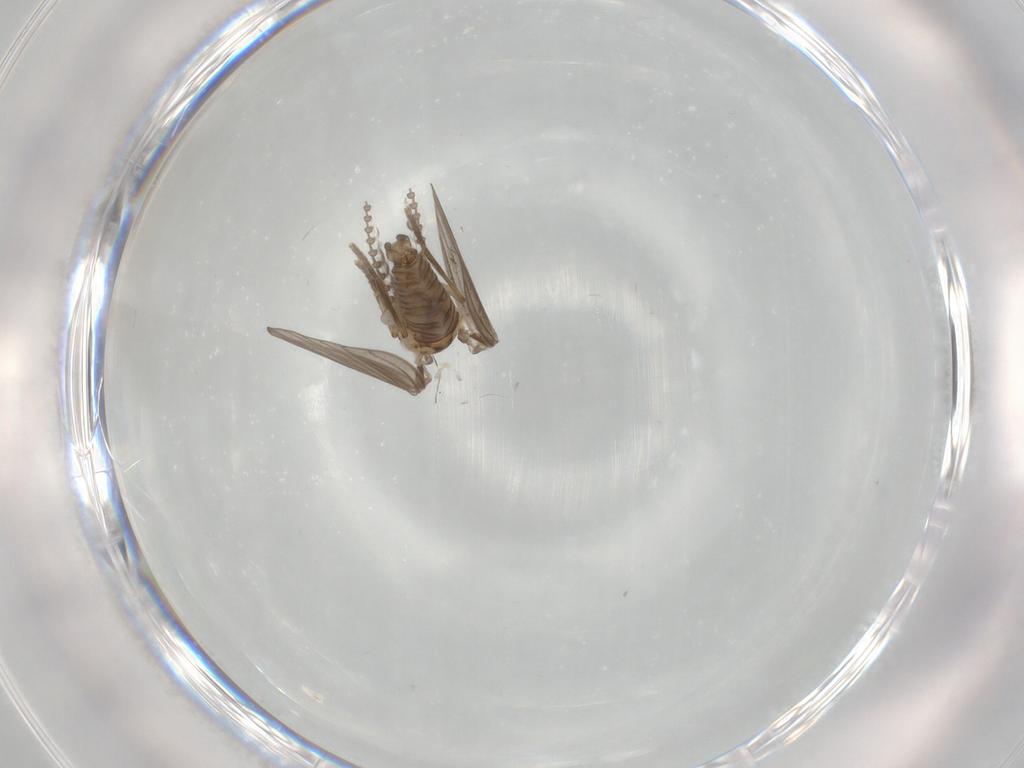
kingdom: Animalia
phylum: Arthropoda
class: Insecta
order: Diptera
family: Psychodidae
